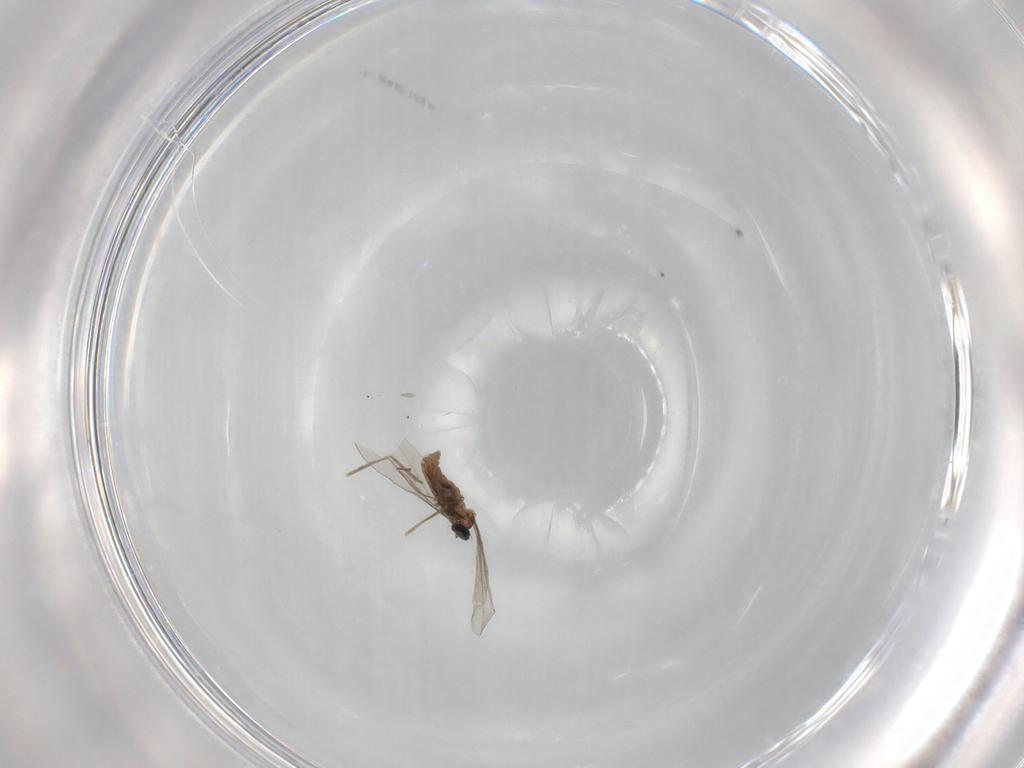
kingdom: Animalia
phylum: Arthropoda
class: Insecta
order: Diptera
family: Cecidomyiidae
